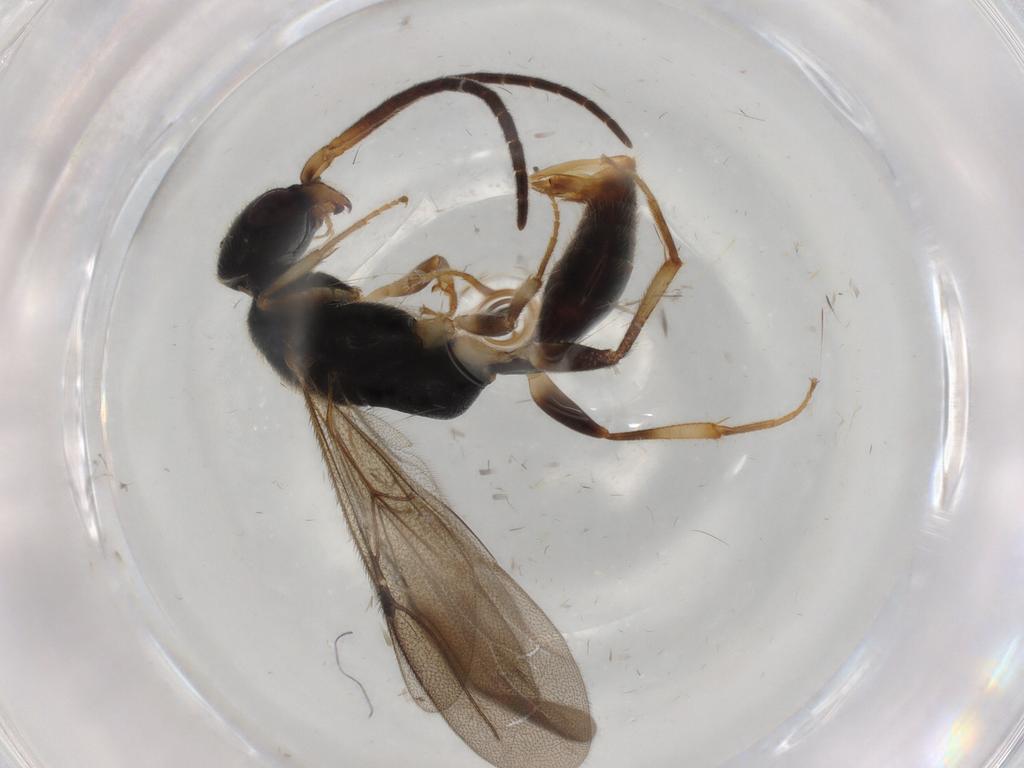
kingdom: Animalia
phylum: Arthropoda
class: Insecta
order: Hymenoptera
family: Bethylidae
